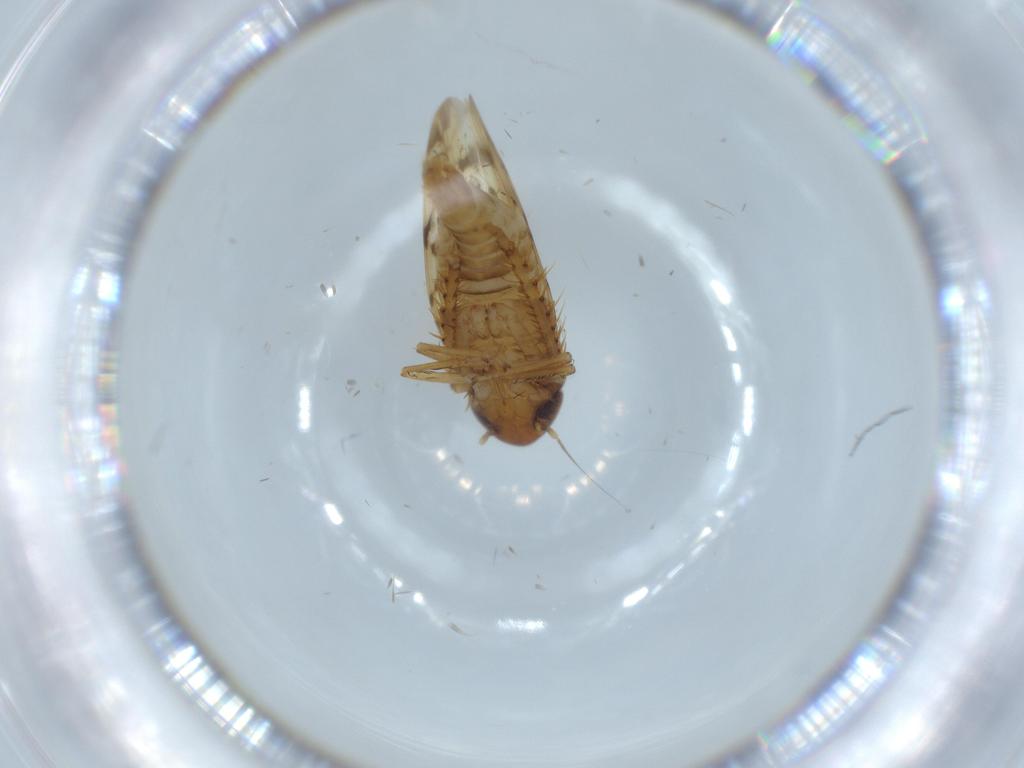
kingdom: Animalia
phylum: Arthropoda
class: Insecta
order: Hemiptera
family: Cicadellidae
